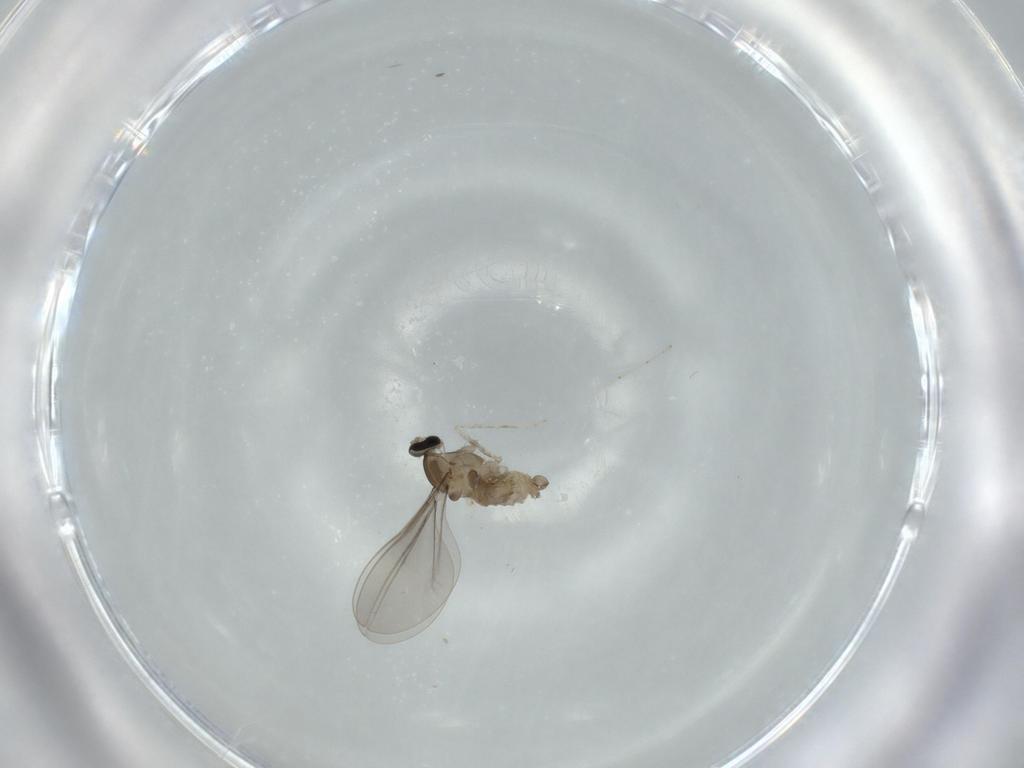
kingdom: Animalia
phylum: Arthropoda
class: Insecta
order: Diptera
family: Cecidomyiidae
